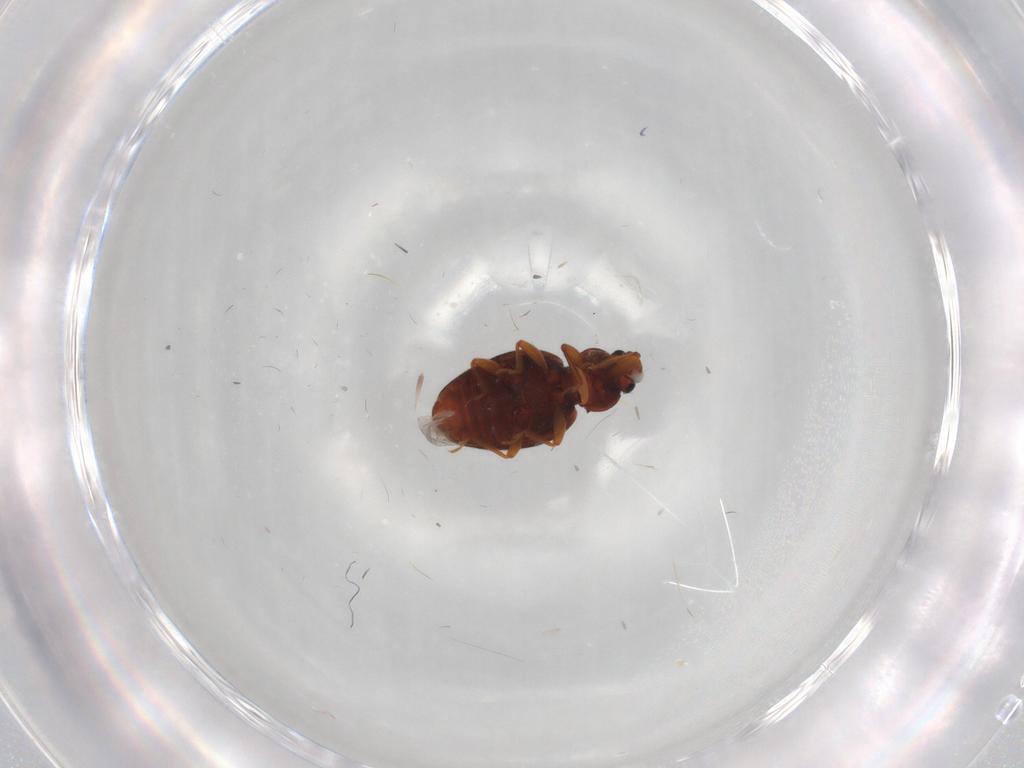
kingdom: Animalia
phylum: Arthropoda
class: Insecta
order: Coleoptera
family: Latridiidae
